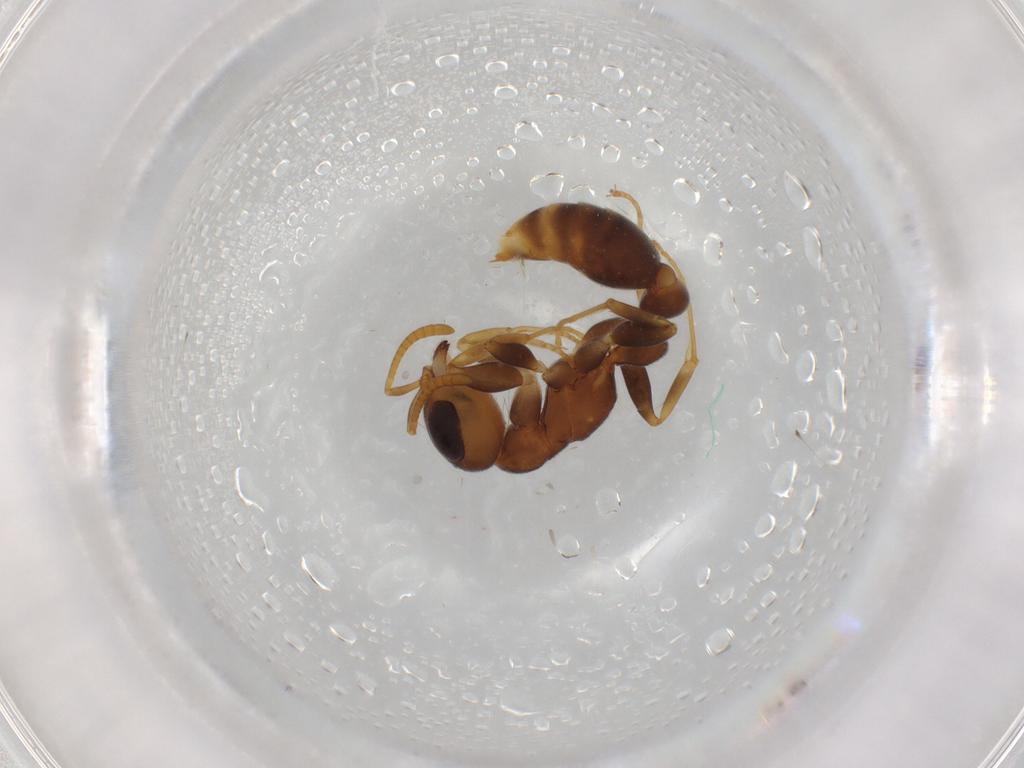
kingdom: Animalia
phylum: Arthropoda
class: Insecta
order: Hymenoptera
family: Formicidae
